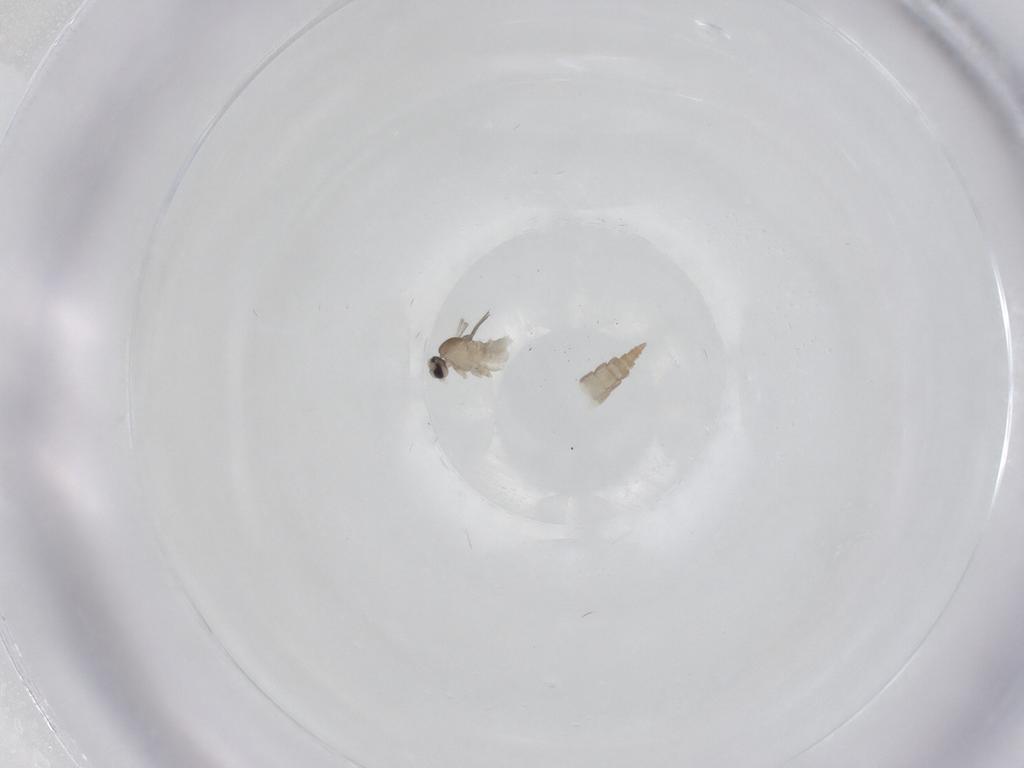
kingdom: Animalia
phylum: Arthropoda
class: Insecta
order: Diptera
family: Cecidomyiidae
